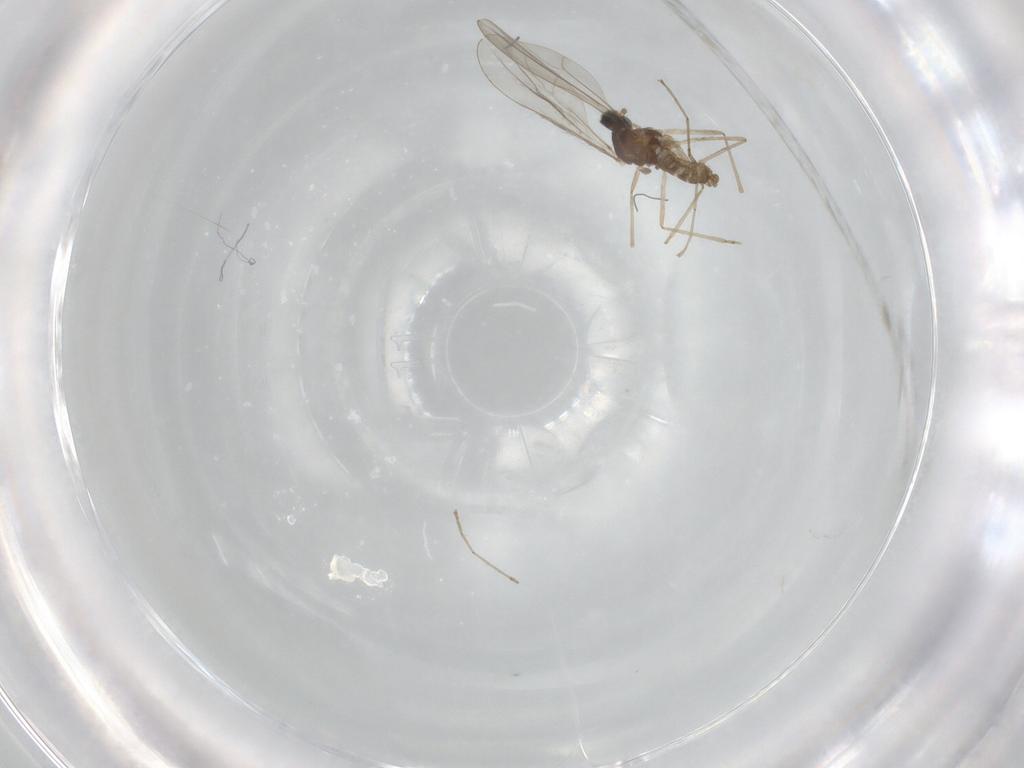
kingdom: Animalia
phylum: Arthropoda
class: Insecta
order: Diptera
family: Cecidomyiidae
